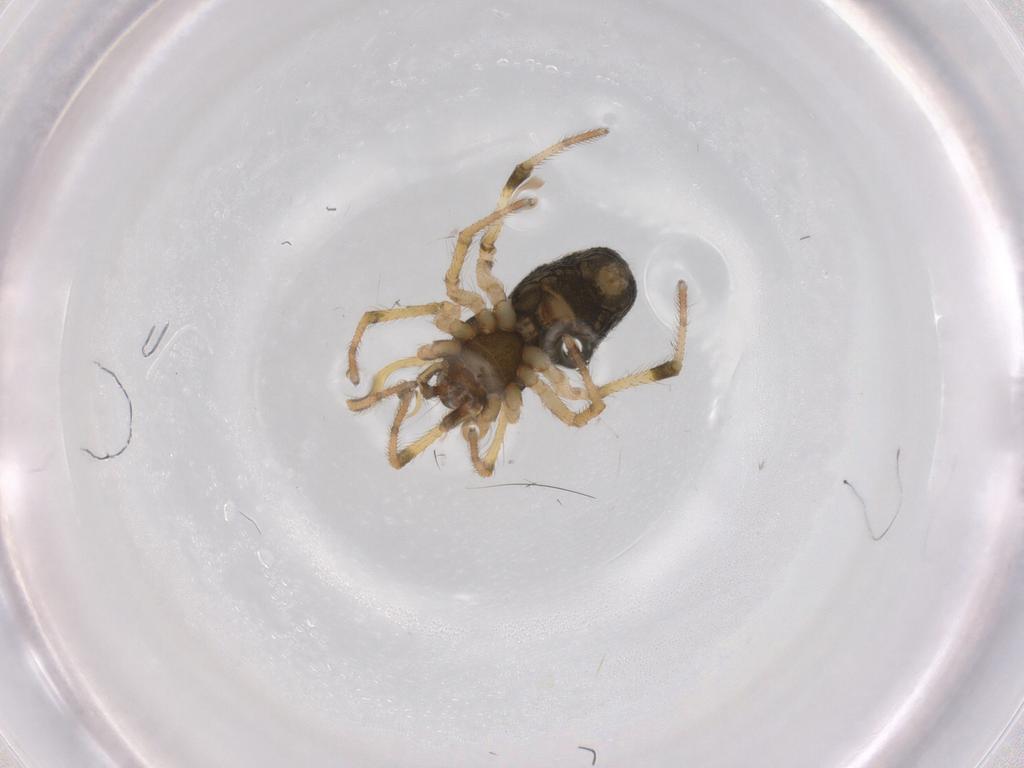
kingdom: Animalia
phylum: Arthropoda
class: Arachnida
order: Araneae
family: Theridiidae
